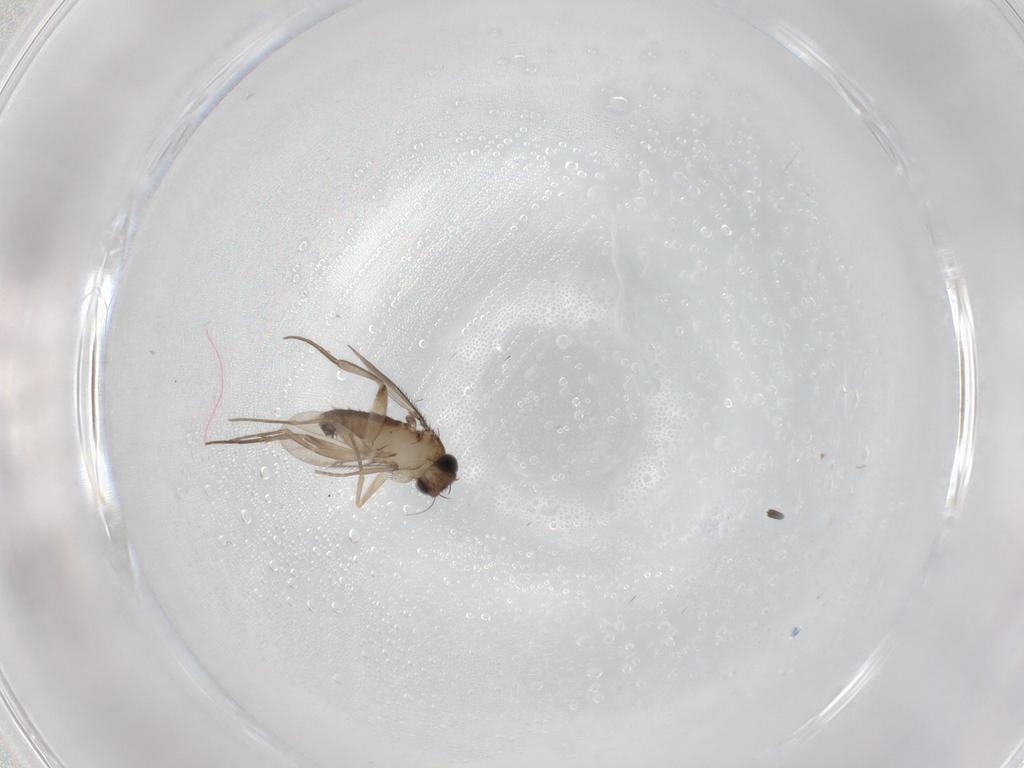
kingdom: Animalia
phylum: Arthropoda
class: Insecta
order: Diptera
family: Phoridae
